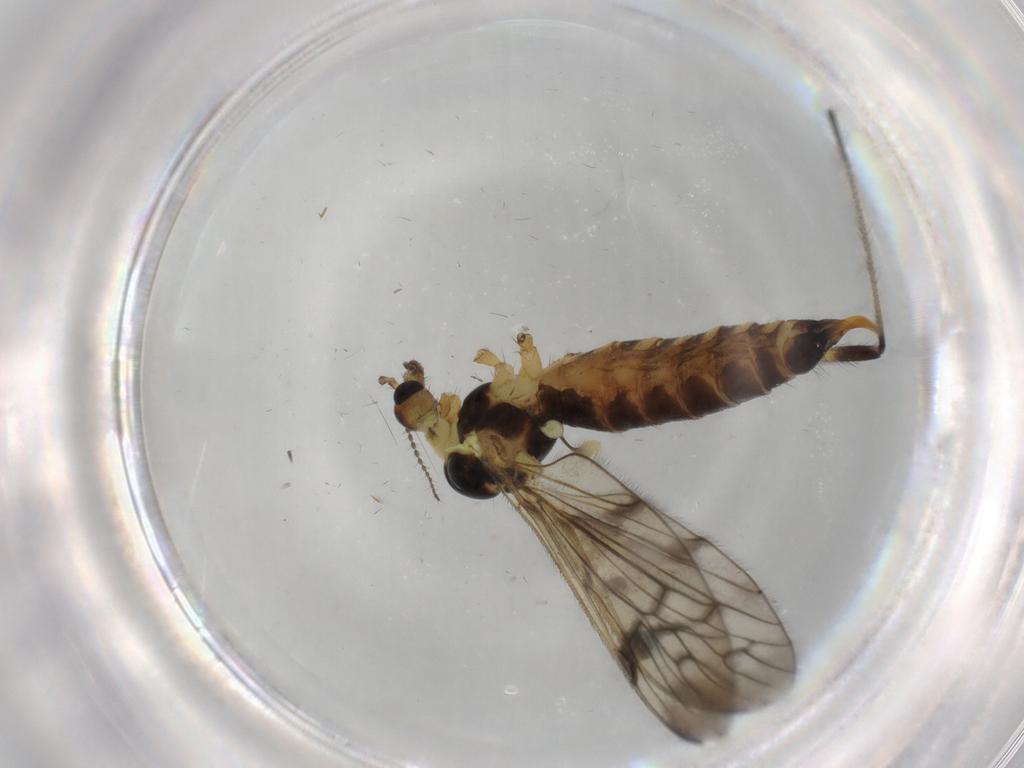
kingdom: Animalia
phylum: Arthropoda
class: Insecta
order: Diptera
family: Limoniidae
